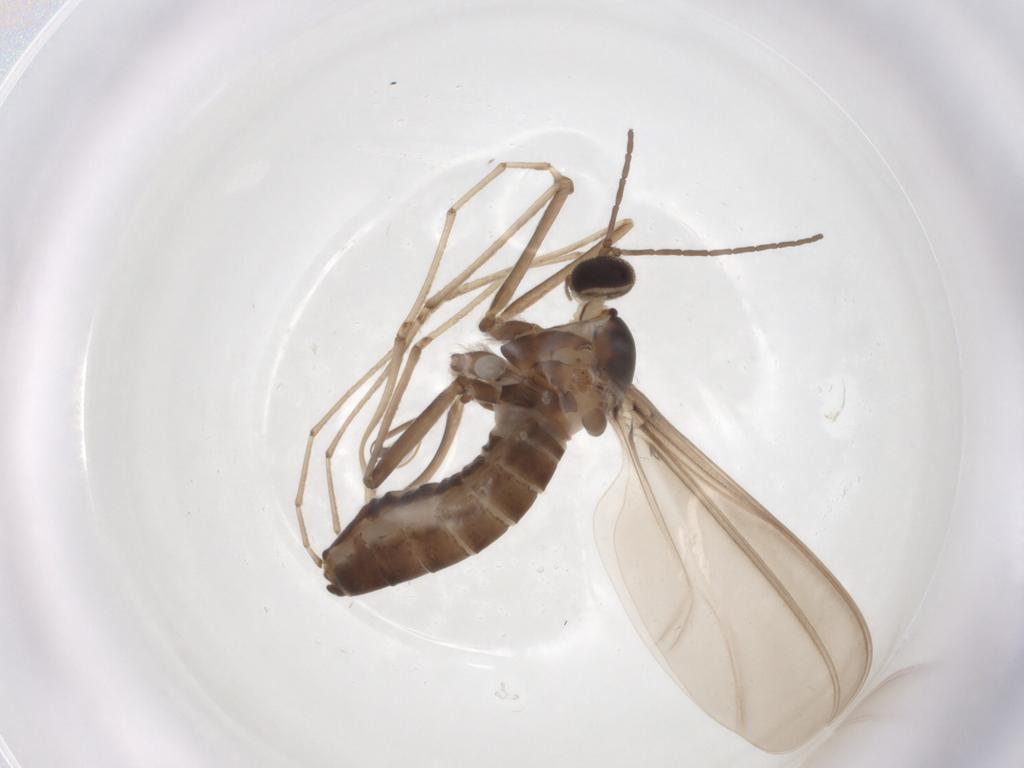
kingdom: Animalia
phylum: Arthropoda
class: Insecta
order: Diptera
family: Cecidomyiidae
